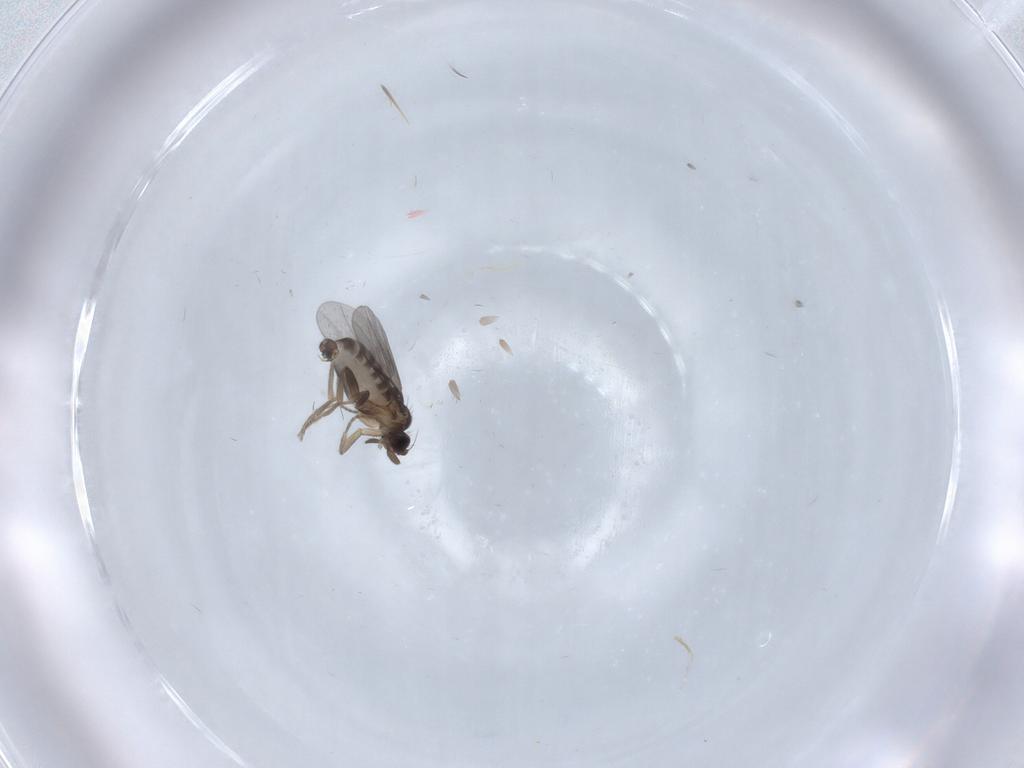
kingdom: Animalia
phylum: Arthropoda
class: Insecta
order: Diptera
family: Phoridae
